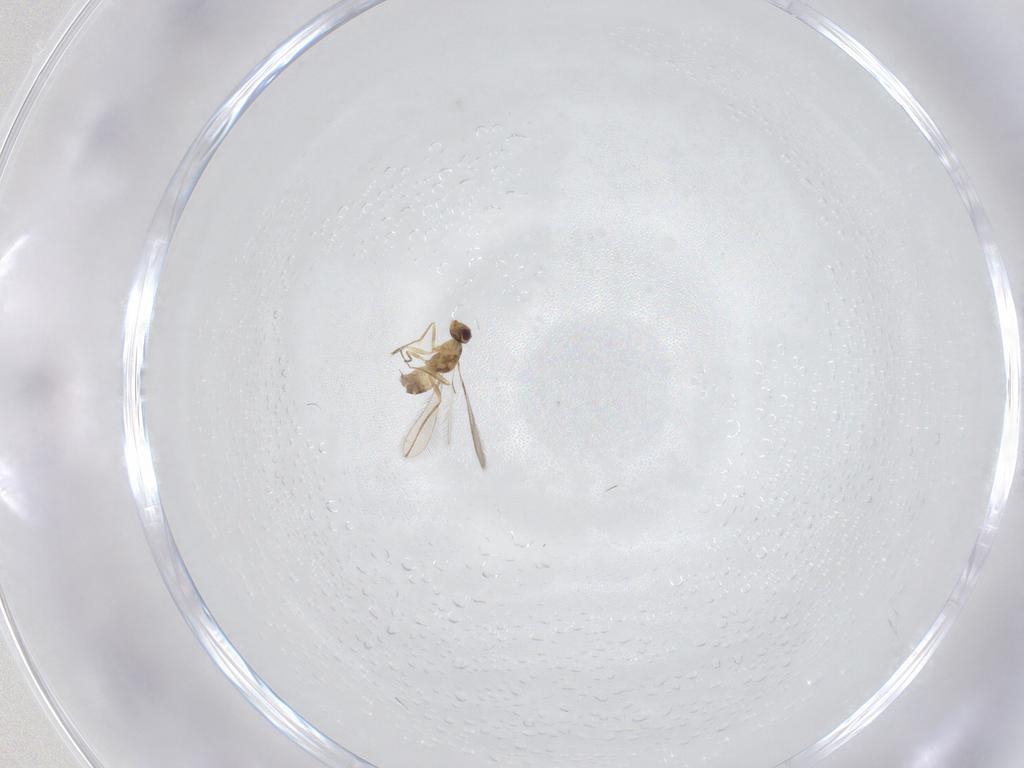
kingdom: Animalia
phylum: Arthropoda
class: Insecta
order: Hymenoptera
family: Mymaridae
